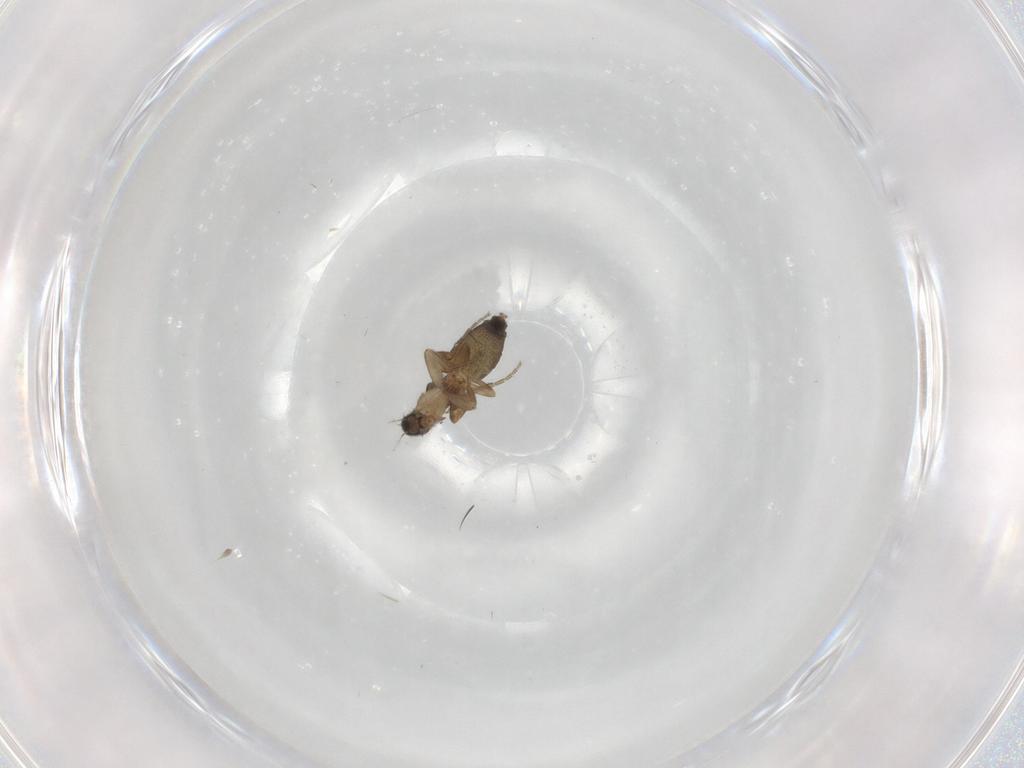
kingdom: Animalia
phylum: Arthropoda
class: Insecta
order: Diptera
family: Phoridae
